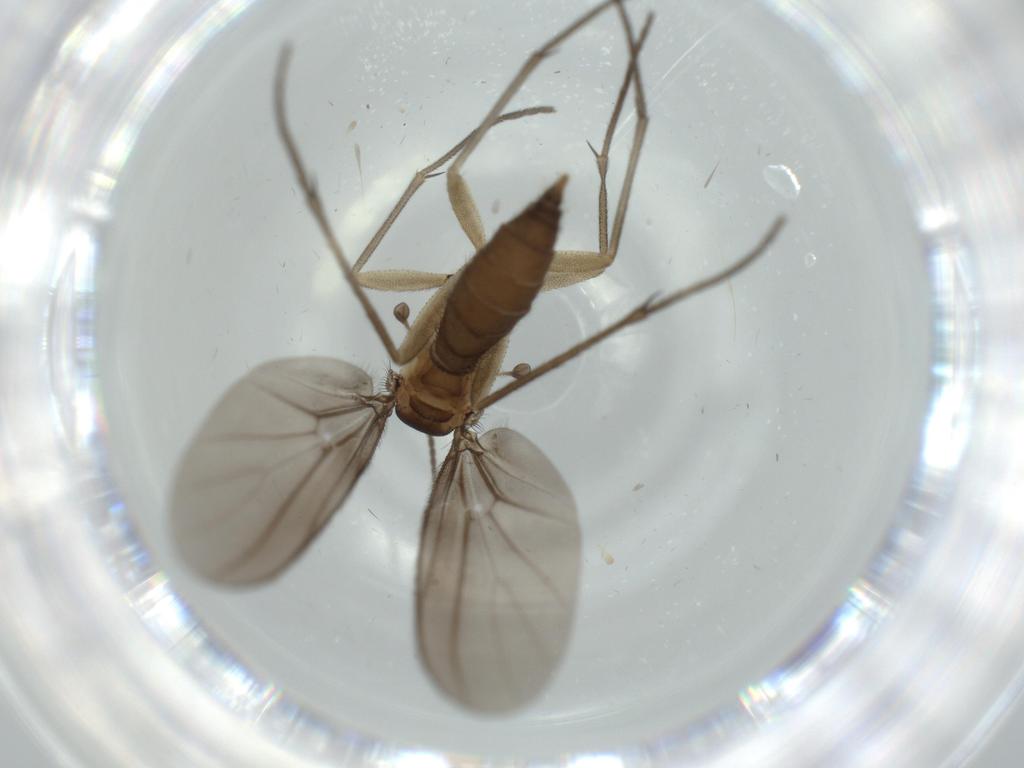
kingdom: Animalia
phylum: Arthropoda
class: Insecta
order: Diptera
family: Diadocidiidae
